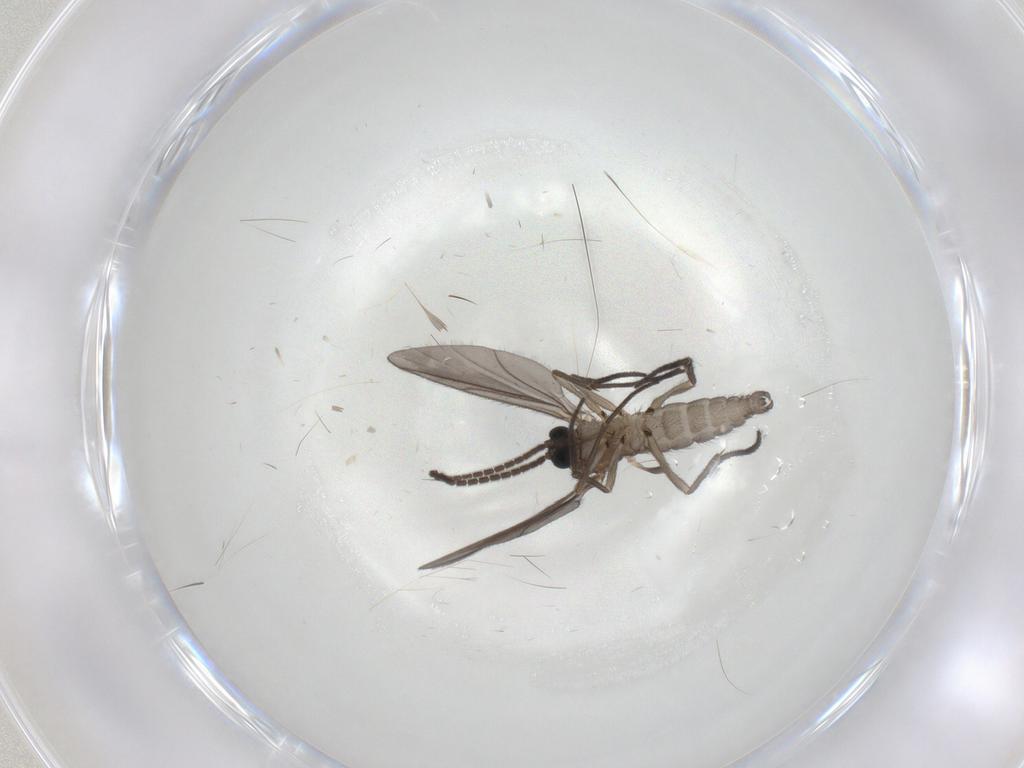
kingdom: Animalia
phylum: Arthropoda
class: Insecta
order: Diptera
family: Sciaridae
